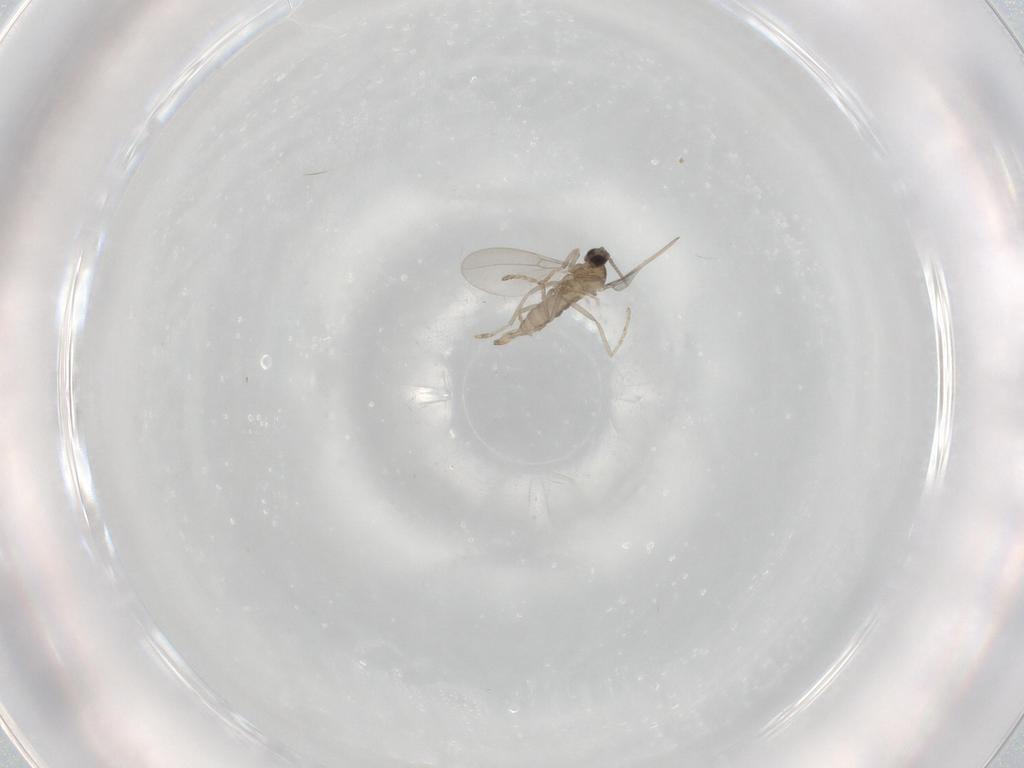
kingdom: Animalia
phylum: Arthropoda
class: Insecta
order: Diptera
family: Cecidomyiidae
